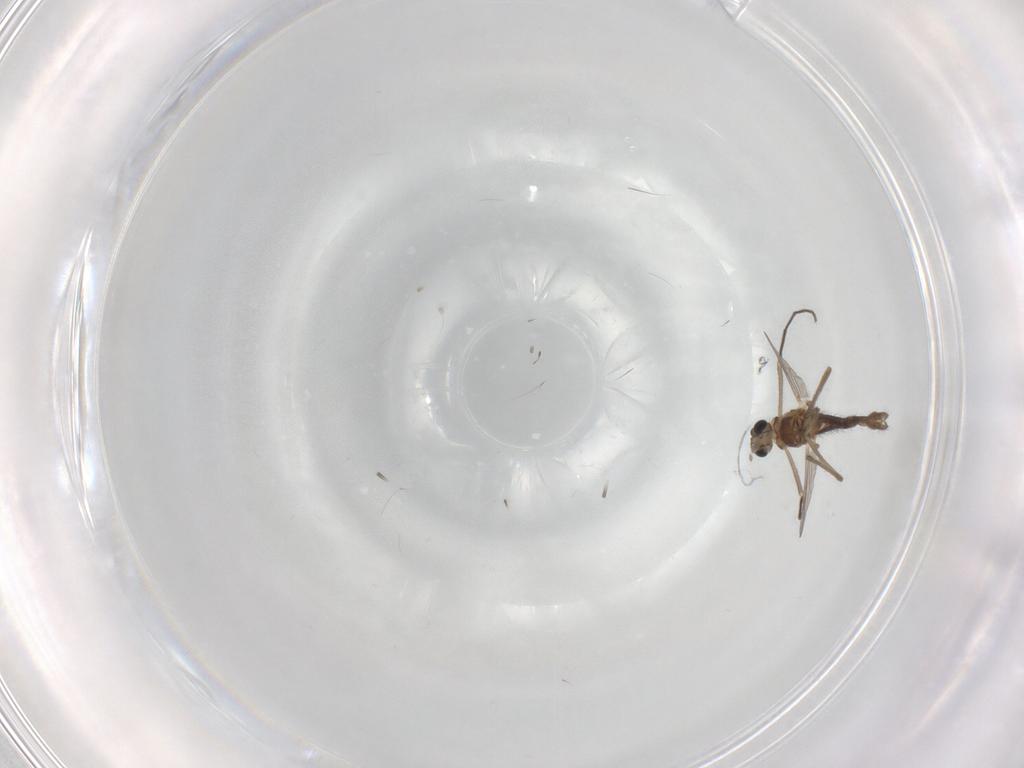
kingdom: Animalia
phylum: Arthropoda
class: Insecta
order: Diptera
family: Chironomidae
